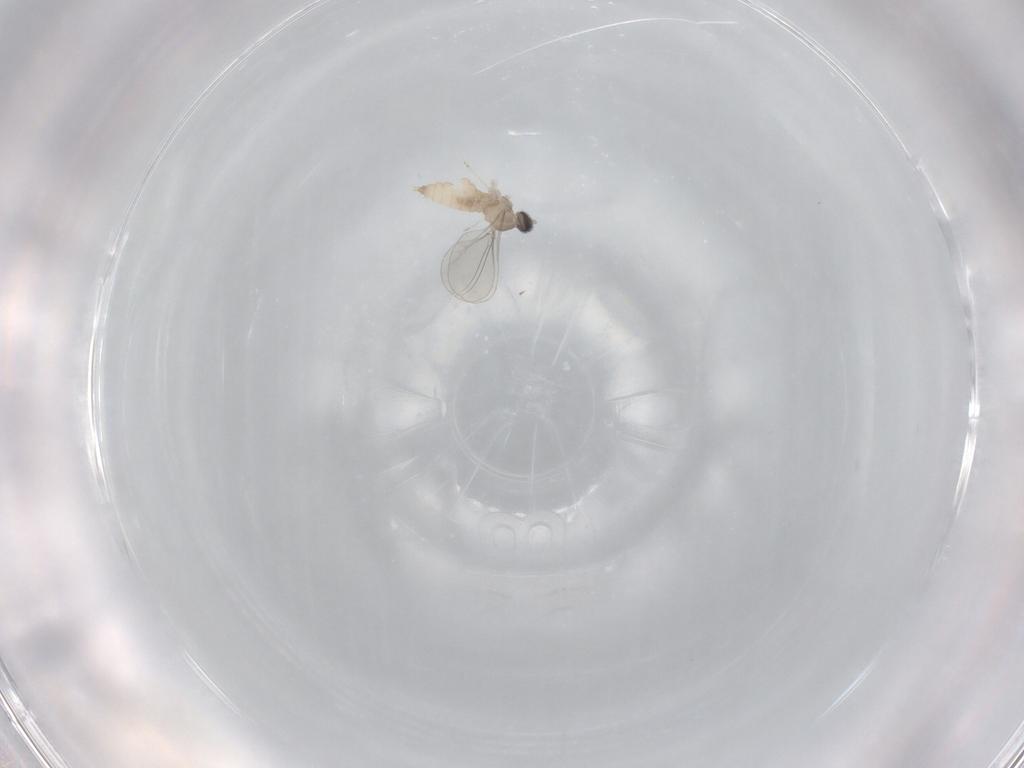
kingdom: Animalia
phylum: Arthropoda
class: Insecta
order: Diptera
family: Cecidomyiidae
